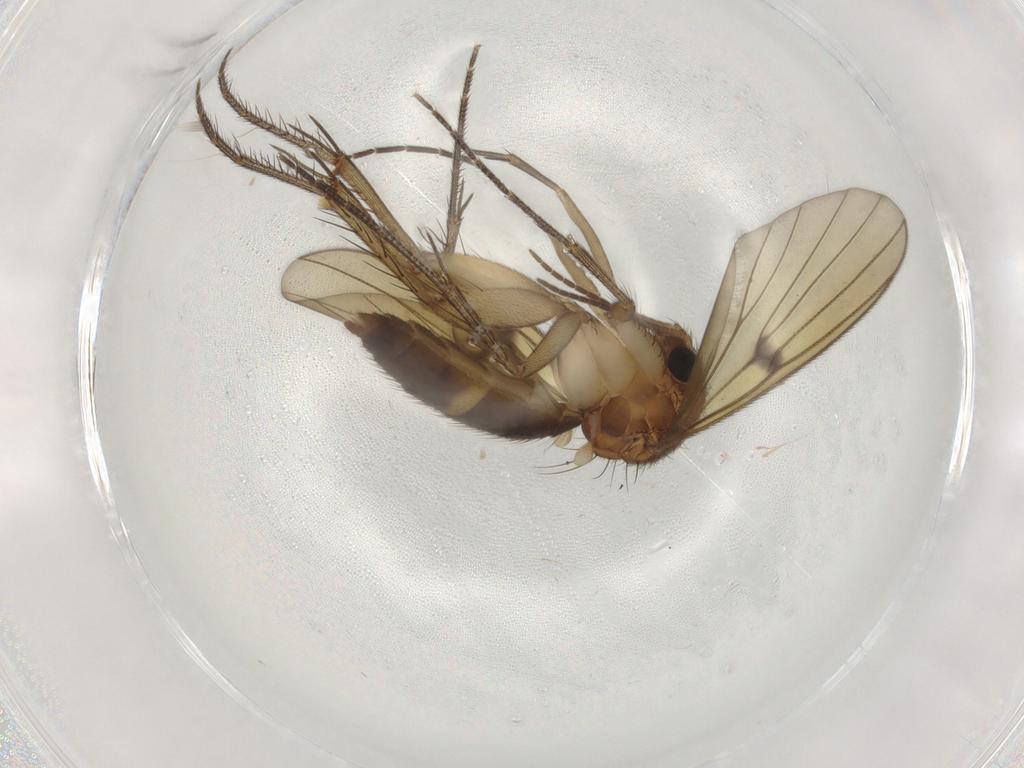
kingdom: Animalia
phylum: Arthropoda
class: Insecta
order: Diptera
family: Mycetophilidae
